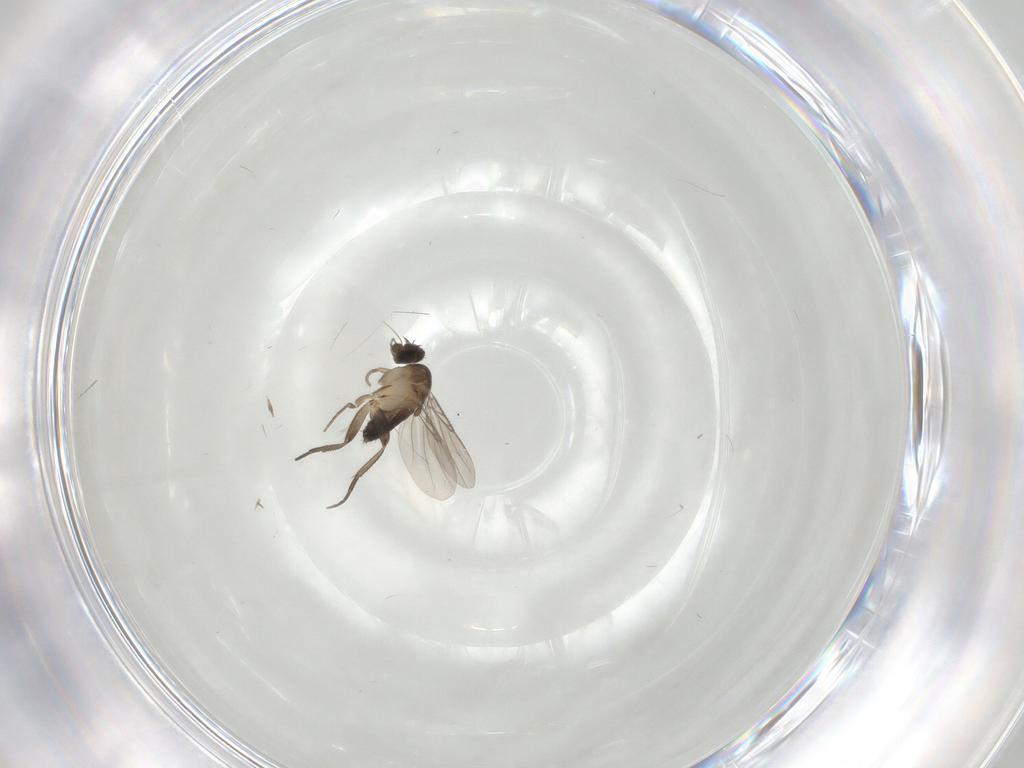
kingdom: Animalia
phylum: Arthropoda
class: Insecta
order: Diptera
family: Phoridae
